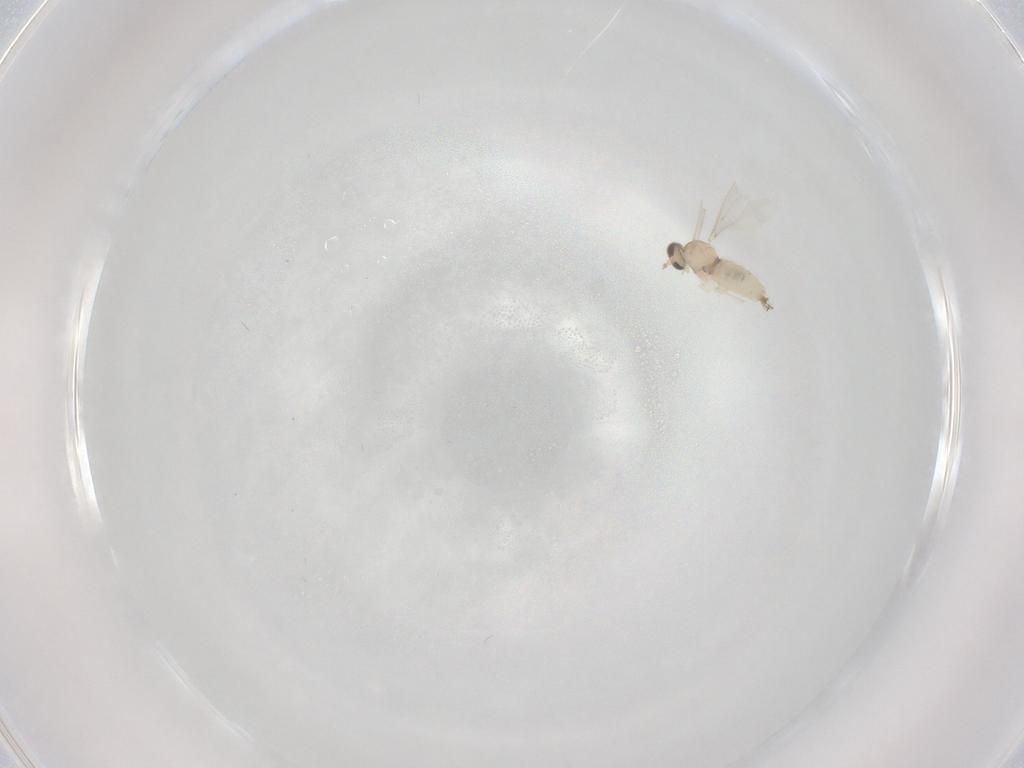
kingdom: Animalia
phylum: Arthropoda
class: Insecta
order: Diptera
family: Cecidomyiidae
